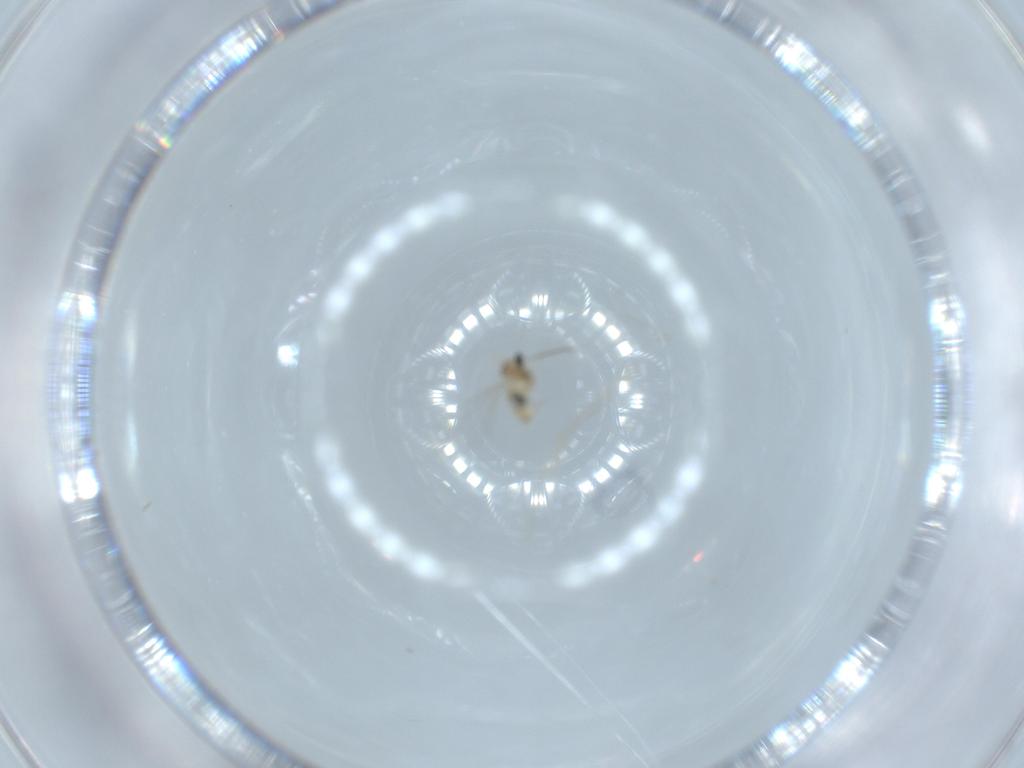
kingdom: Animalia
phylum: Arthropoda
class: Insecta
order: Diptera
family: Cecidomyiidae
